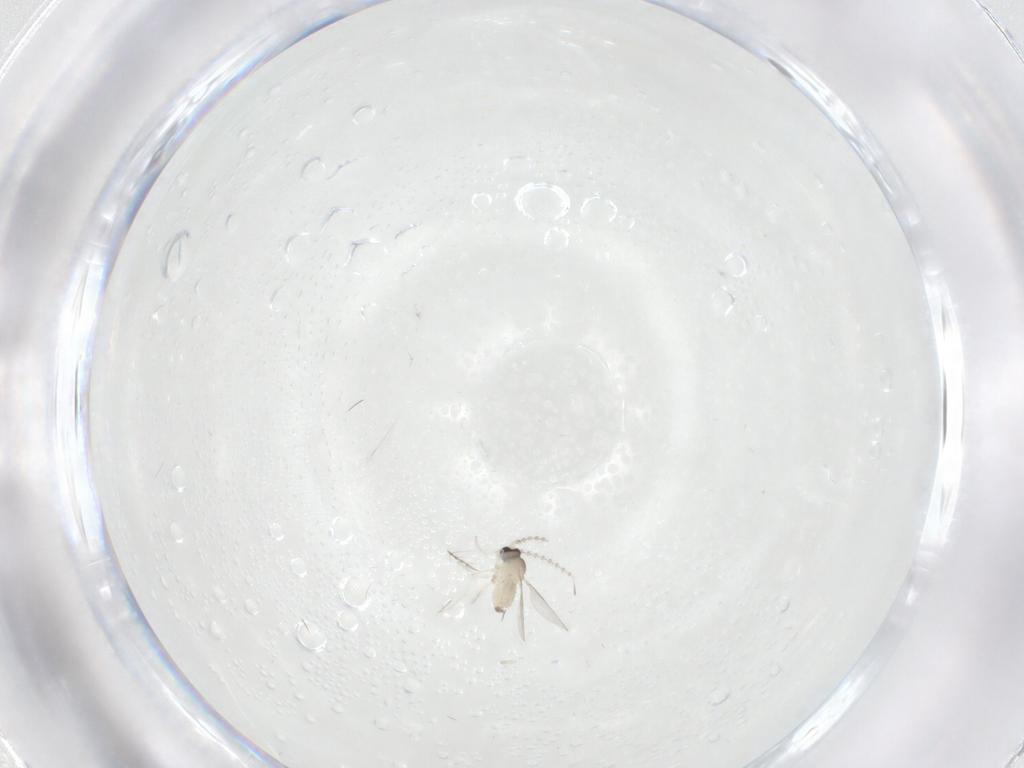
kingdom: Animalia
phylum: Arthropoda
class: Insecta
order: Diptera
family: Cecidomyiidae
